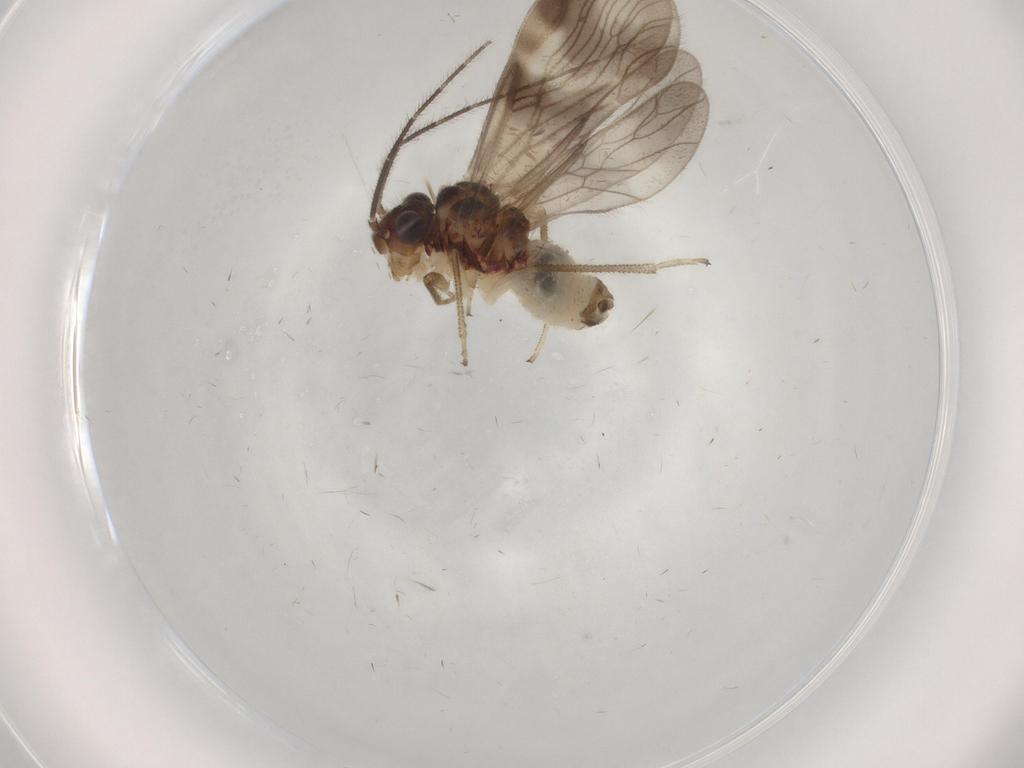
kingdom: Animalia
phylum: Arthropoda
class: Insecta
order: Psocodea
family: Amphipsocidae
